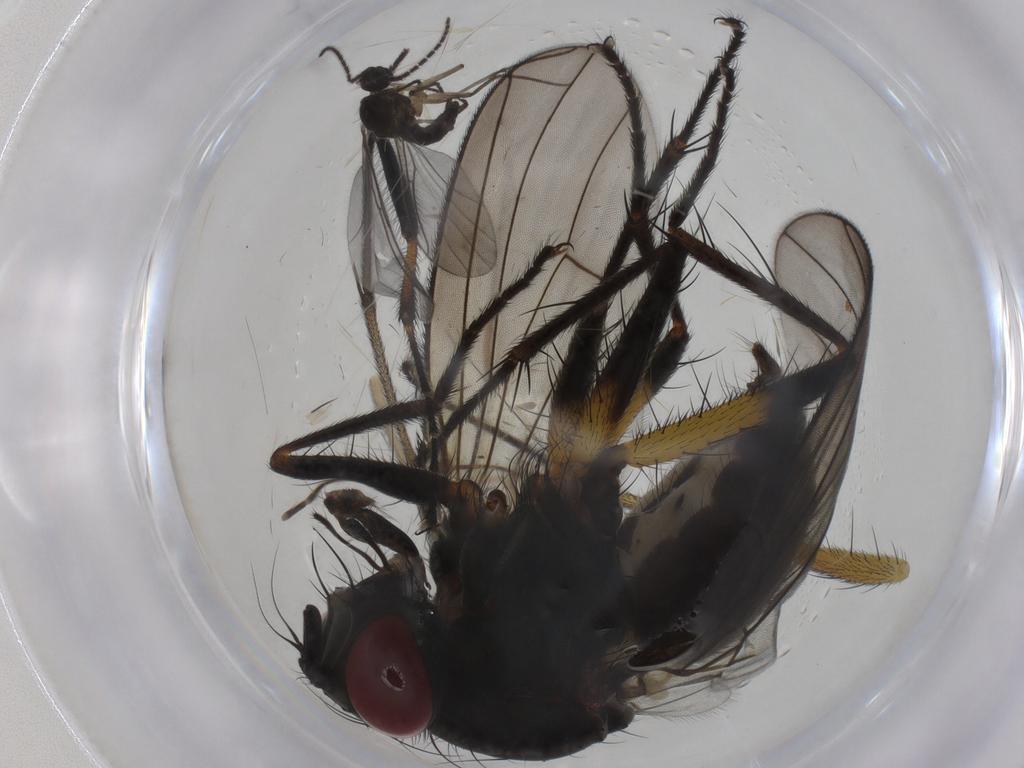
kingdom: Animalia
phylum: Arthropoda
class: Insecta
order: Diptera
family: Muscidae
